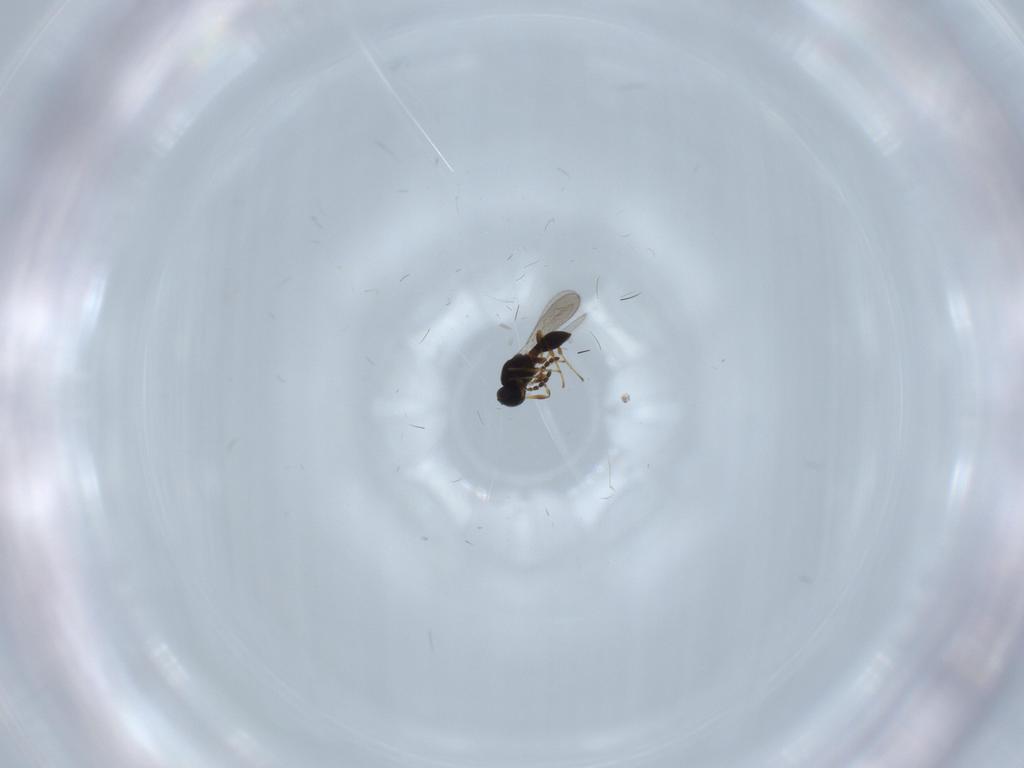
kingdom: Animalia
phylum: Arthropoda
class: Insecta
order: Hymenoptera
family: Platygastridae
